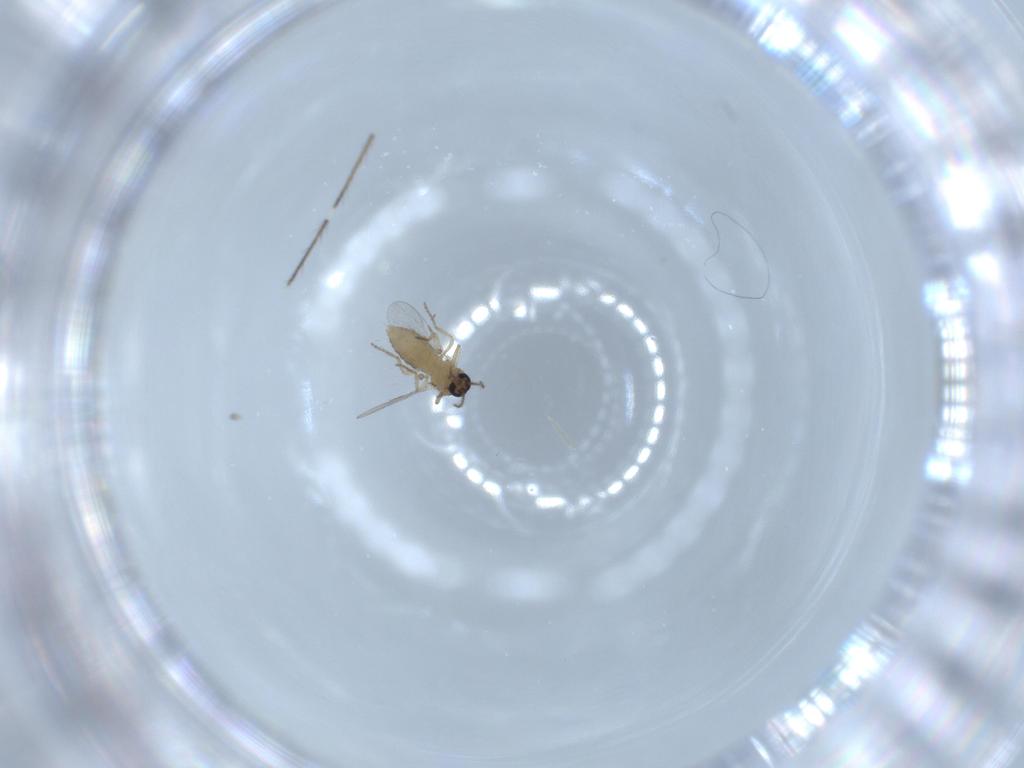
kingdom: Animalia
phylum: Arthropoda
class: Insecta
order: Diptera
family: Ceratopogonidae
